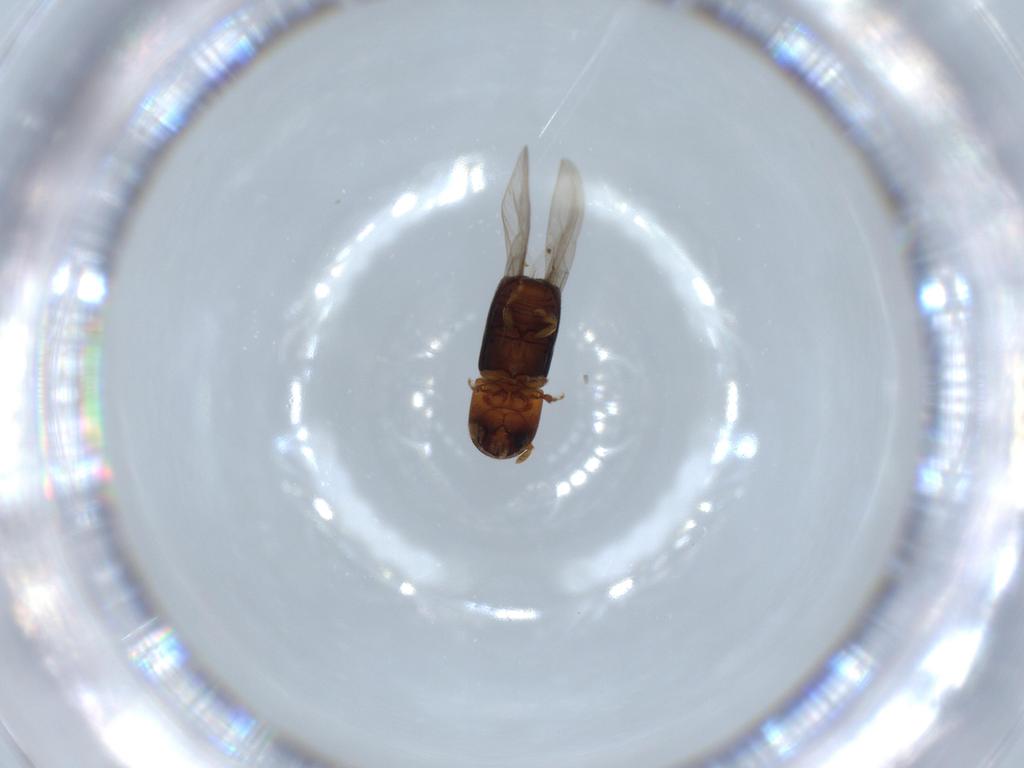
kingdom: Animalia
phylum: Arthropoda
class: Insecta
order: Coleoptera
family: Curculionidae
